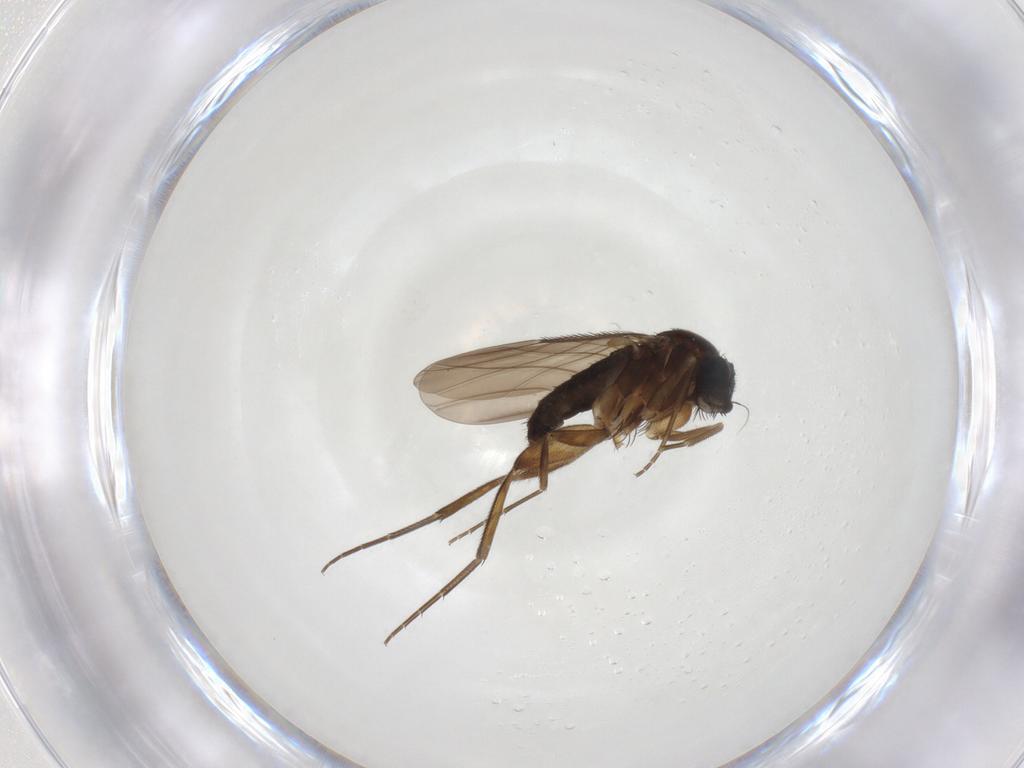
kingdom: Animalia
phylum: Arthropoda
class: Insecta
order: Diptera
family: Phoridae
